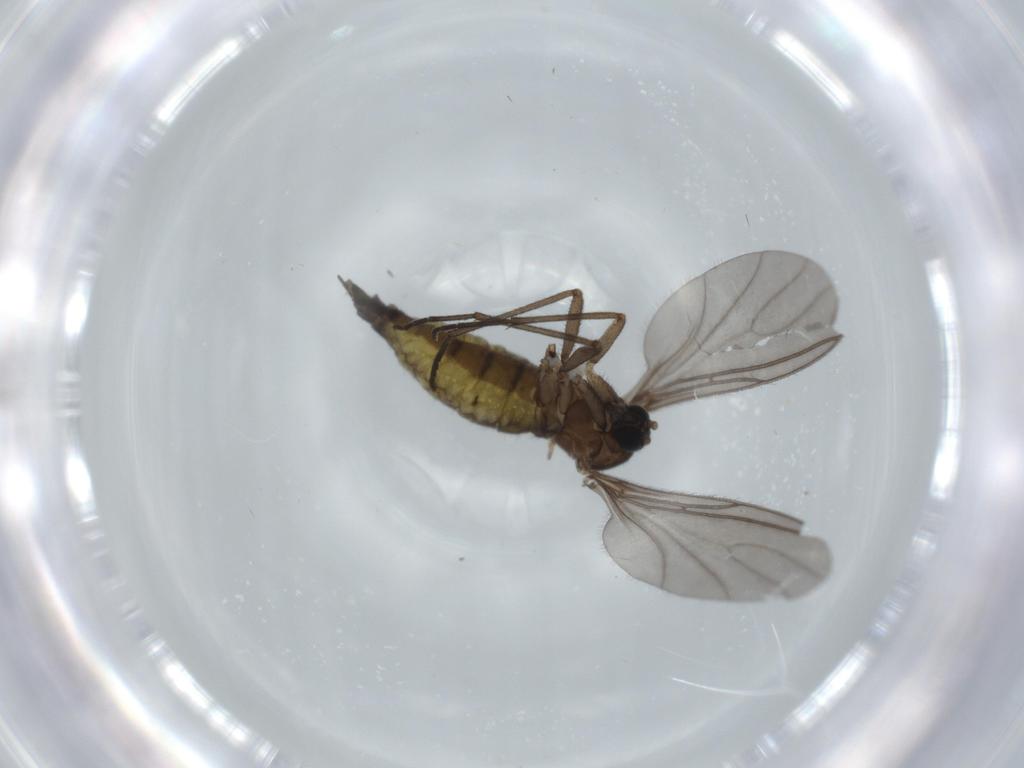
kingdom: Animalia
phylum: Arthropoda
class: Insecta
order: Diptera
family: Sciaridae
